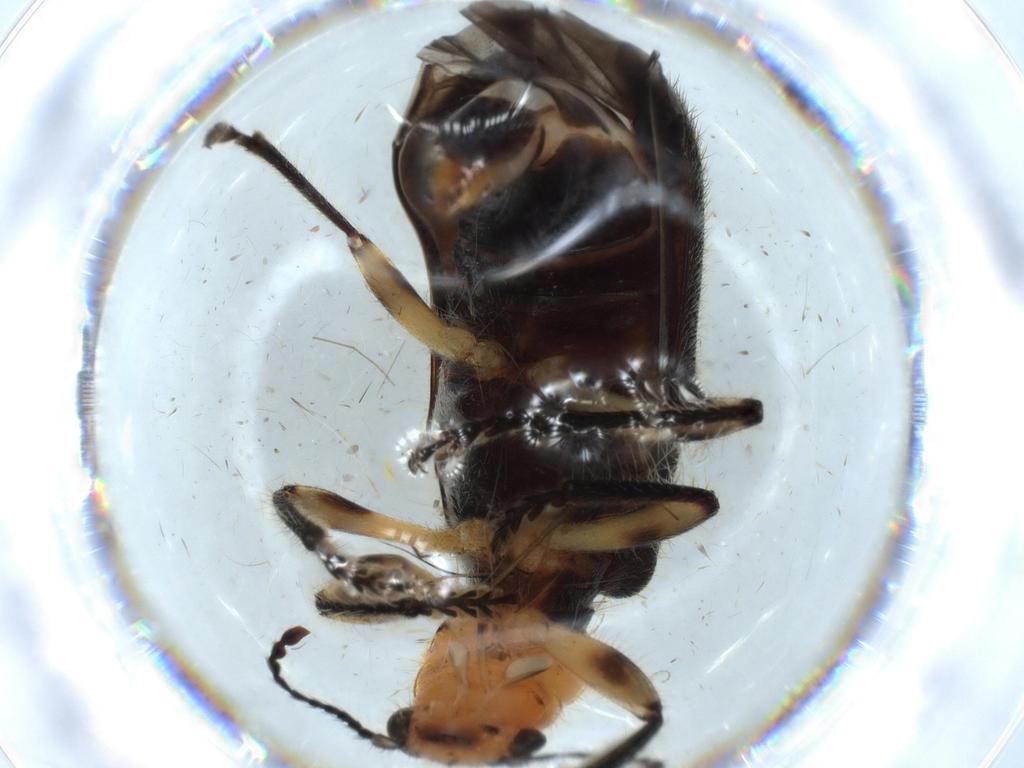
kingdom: Animalia
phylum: Arthropoda
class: Insecta
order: Coleoptera
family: Cleridae
